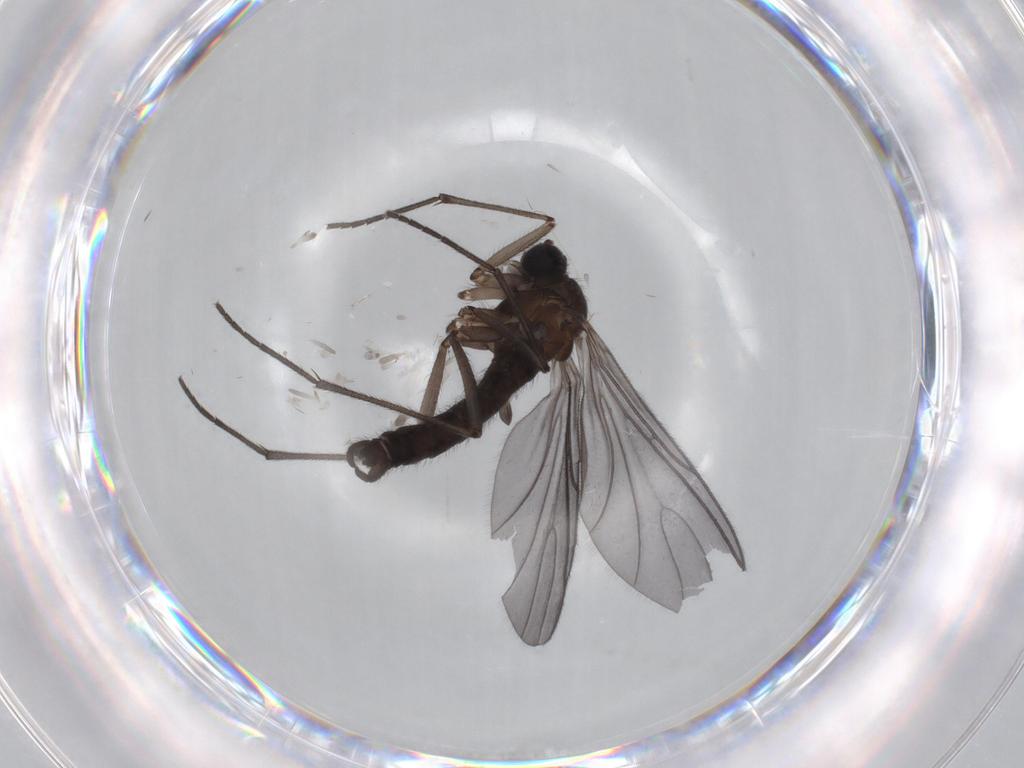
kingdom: Animalia
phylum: Arthropoda
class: Insecta
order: Diptera
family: Sciaridae
